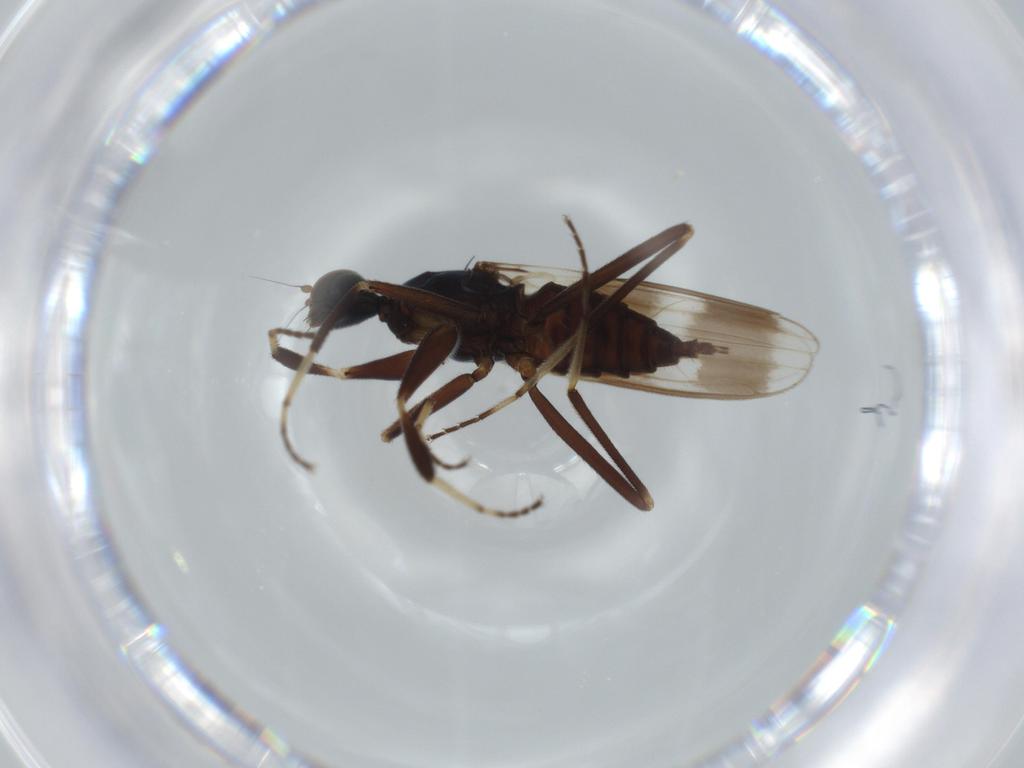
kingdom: Animalia
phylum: Arthropoda
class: Insecta
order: Diptera
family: Hybotidae
